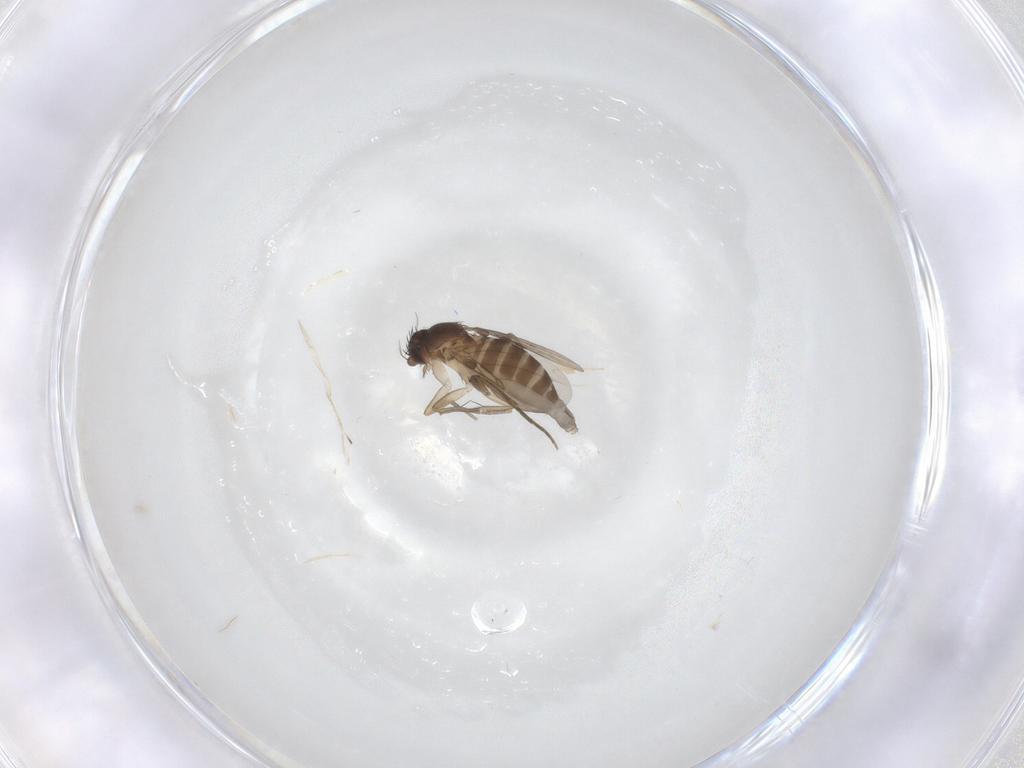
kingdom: Animalia
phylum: Arthropoda
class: Insecta
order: Diptera
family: Phoridae
